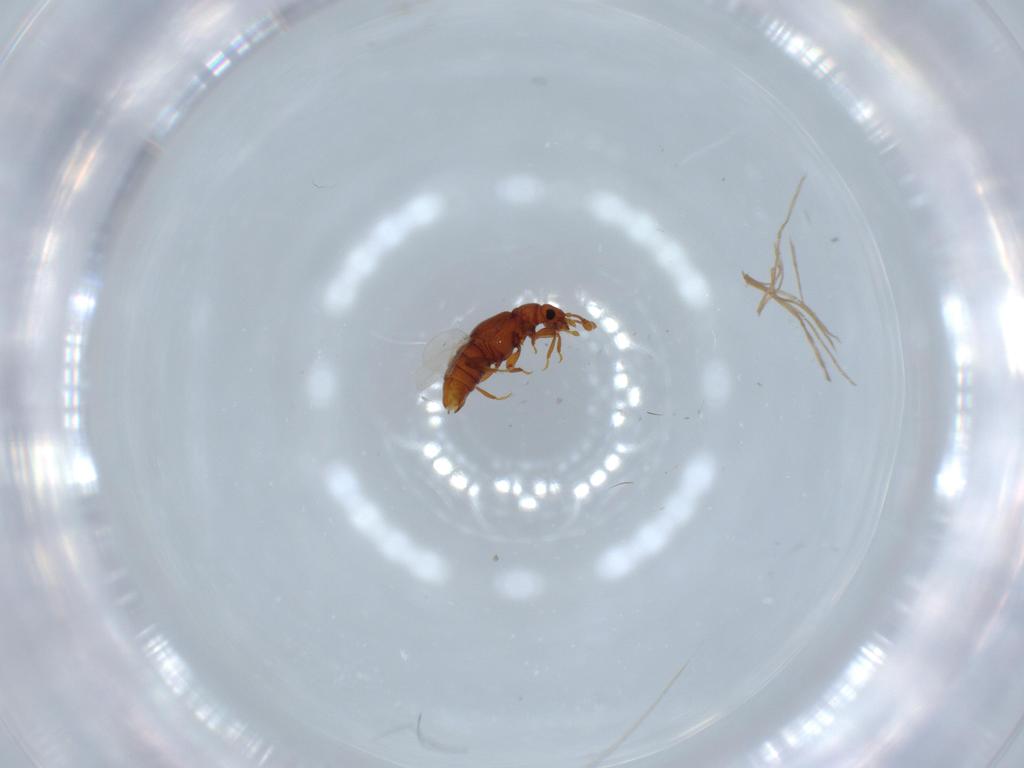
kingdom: Animalia
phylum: Arthropoda
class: Insecta
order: Coleoptera
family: Staphylinidae
